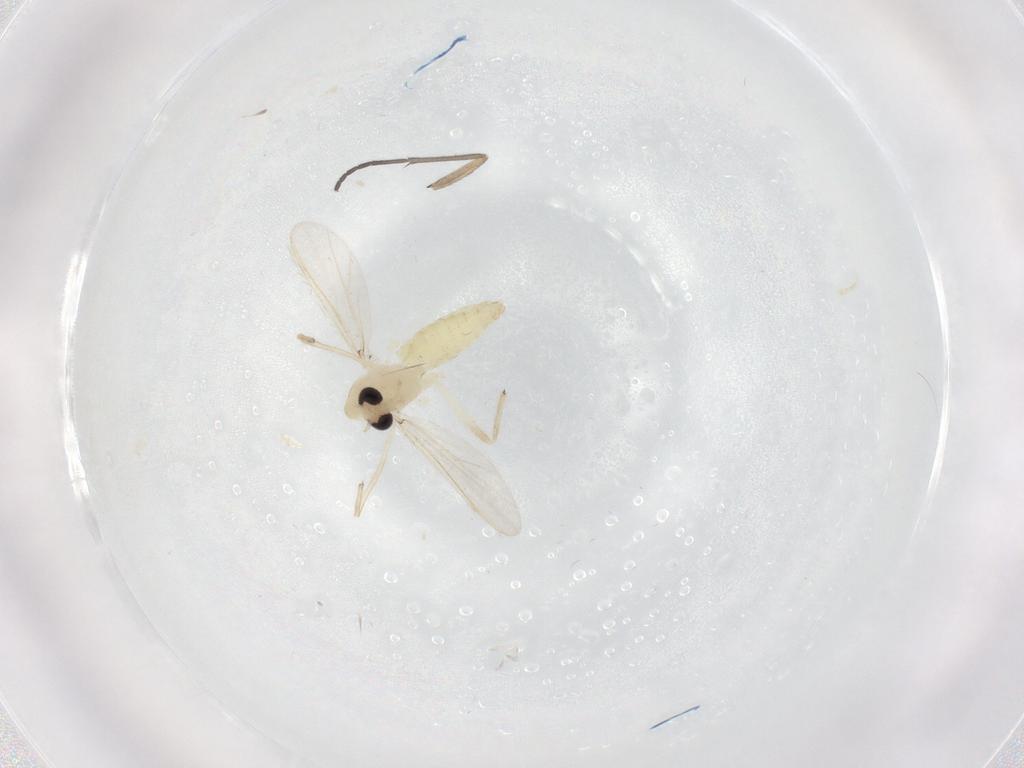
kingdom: Animalia
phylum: Arthropoda
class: Insecta
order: Diptera
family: Chironomidae
